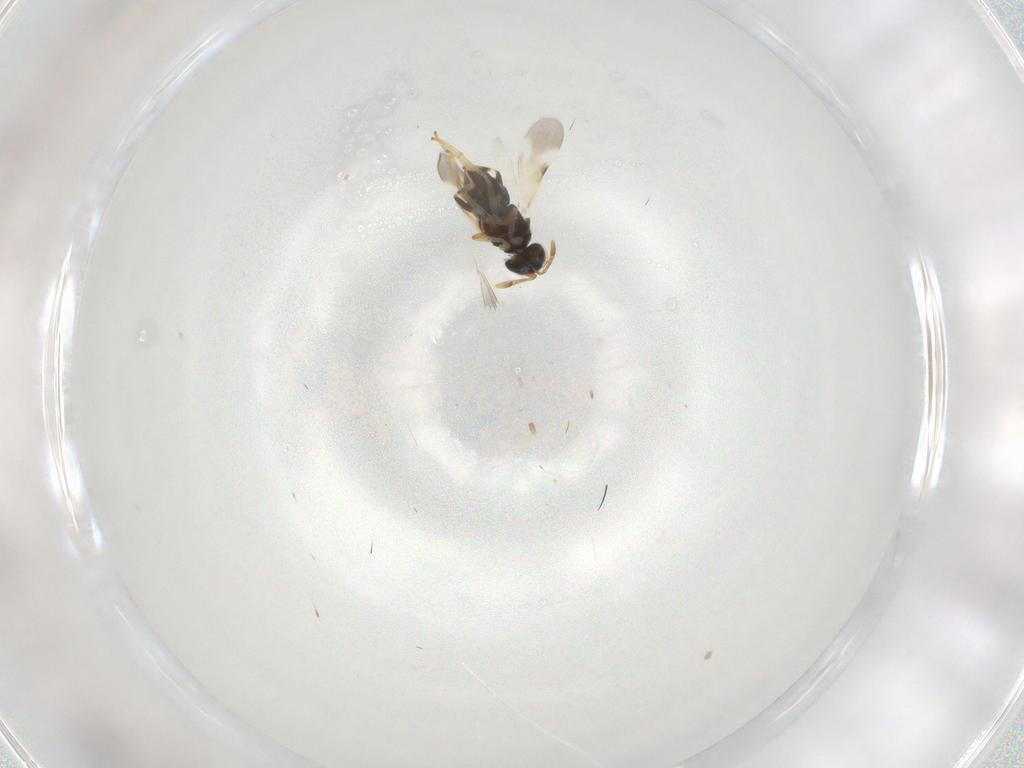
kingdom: Animalia
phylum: Arthropoda
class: Insecta
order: Hymenoptera
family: Encyrtidae
